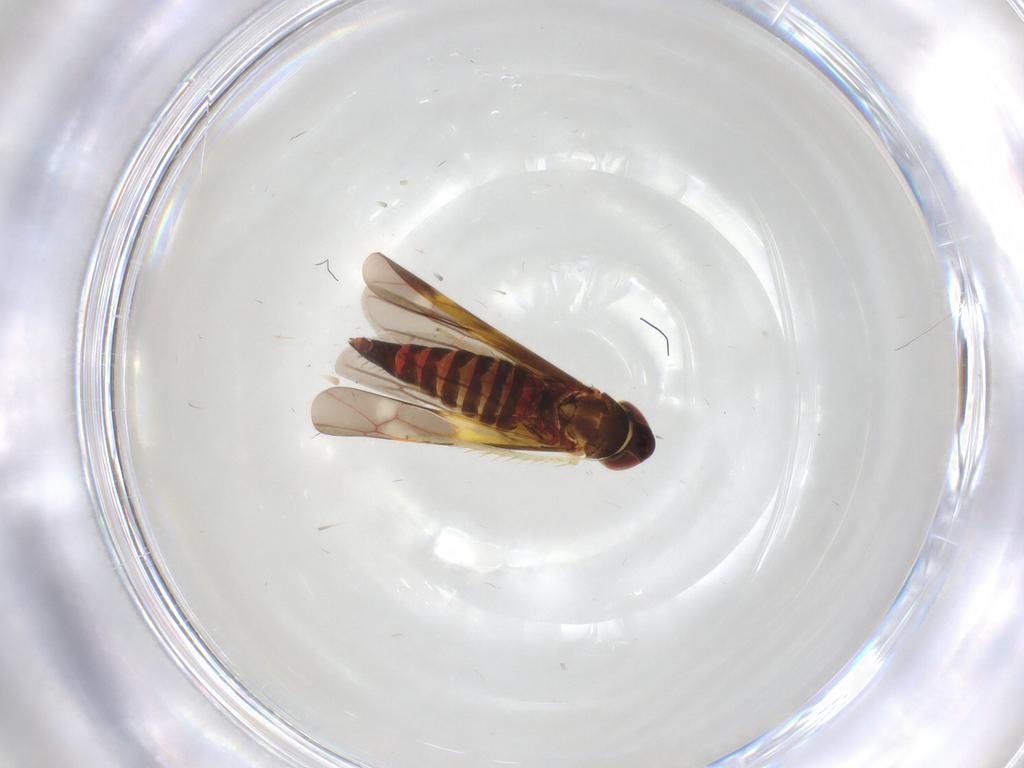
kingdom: Animalia
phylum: Arthropoda
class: Insecta
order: Hemiptera
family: Cicadellidae
